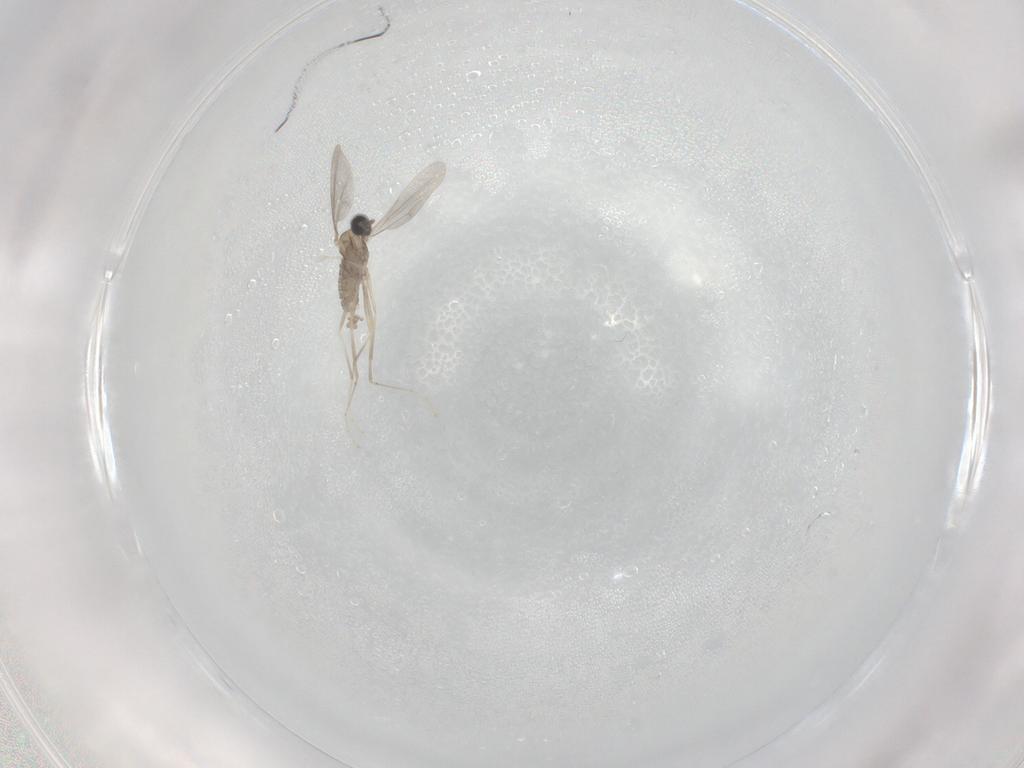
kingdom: Animalia
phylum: Arthropoda
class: Insecta
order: Diptera
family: Cecidomyiidae
